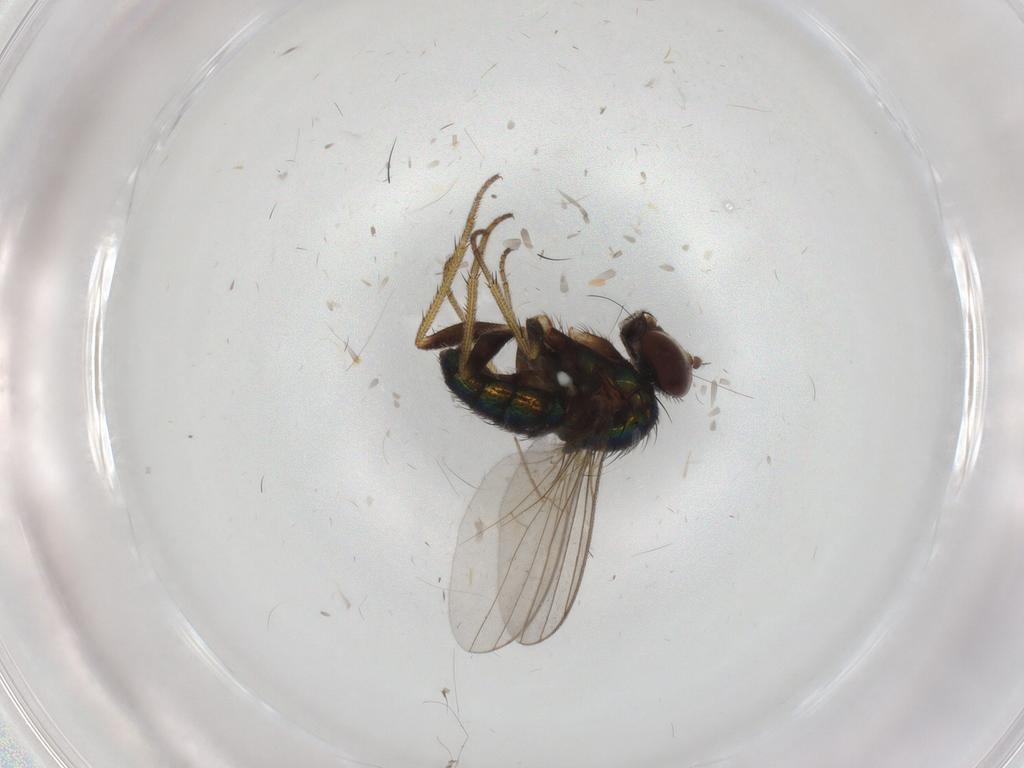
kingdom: Animalia
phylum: Arthropoda
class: Insecta
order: Diptera
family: Chironomidae
